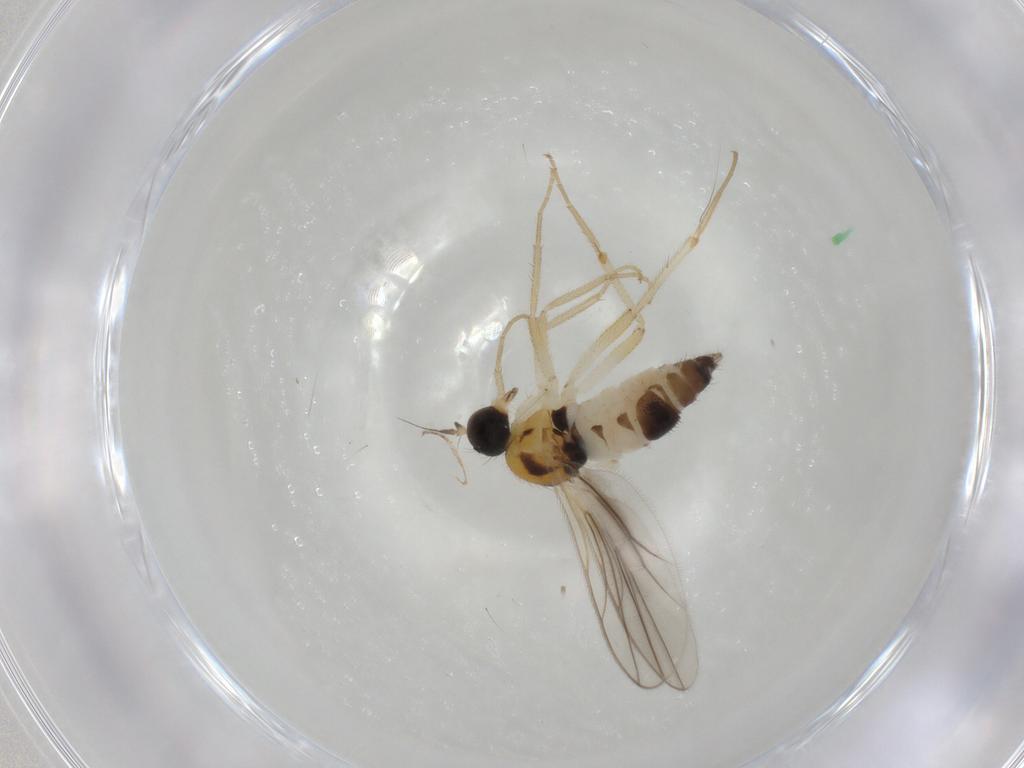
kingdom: Animalia
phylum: Arthropoda
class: Insecta
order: Diptera
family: Hybotidae
